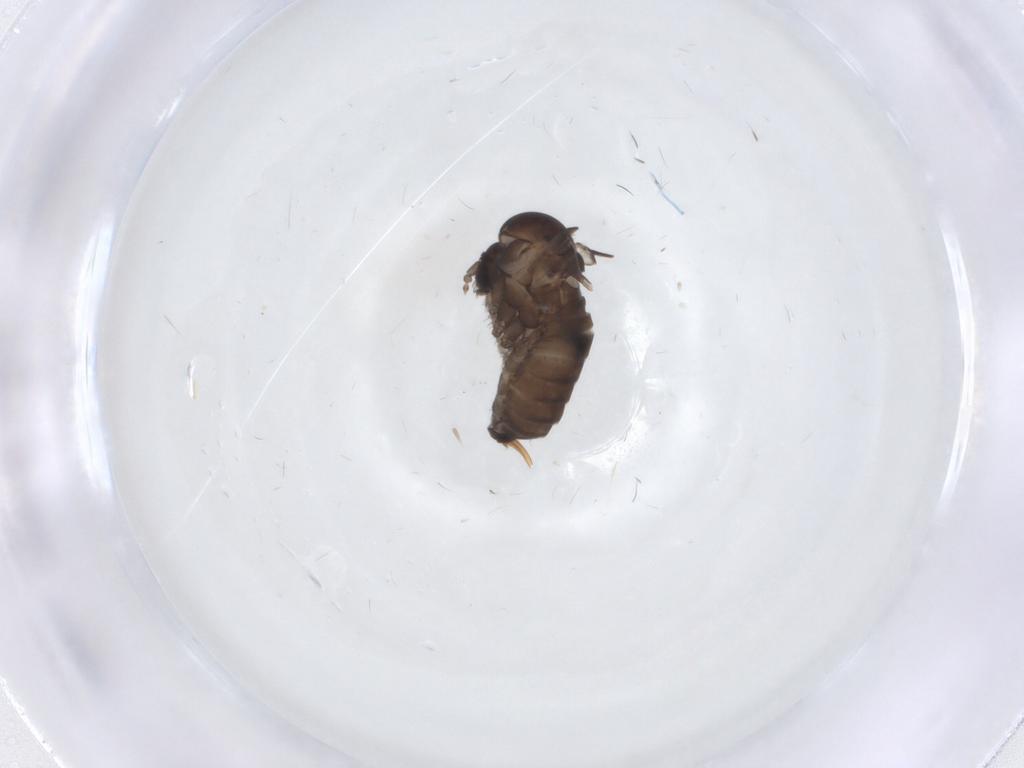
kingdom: Animalia
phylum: Arthropoda
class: Insecta
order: Diptera
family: Psychodidae
